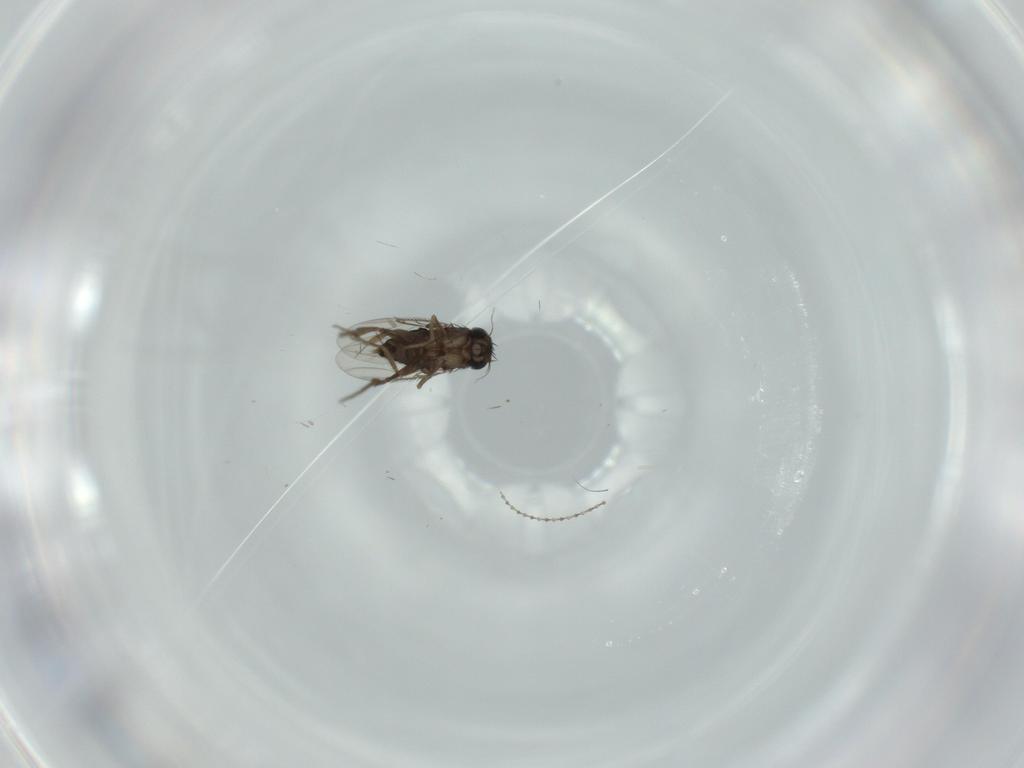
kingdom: Animalia
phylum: Arthropoda
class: Insecta
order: Diptera
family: Cecidomyiidae
